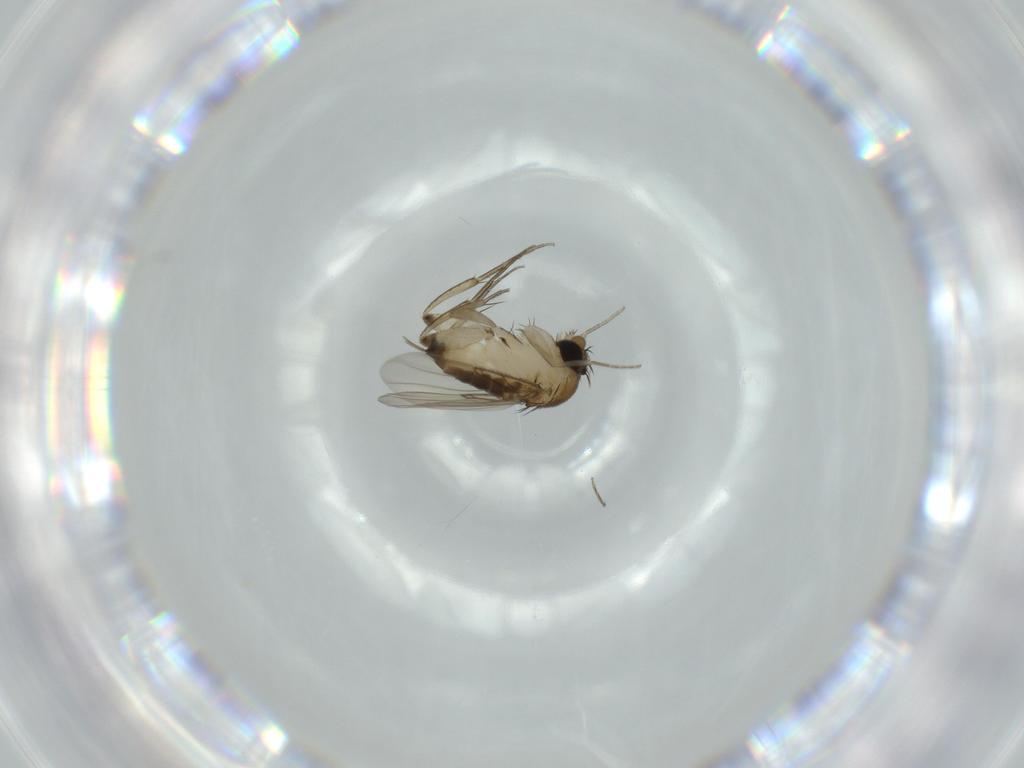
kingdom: Animalia
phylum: Arthropoda
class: Insecta
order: Diptera
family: Phoridae
